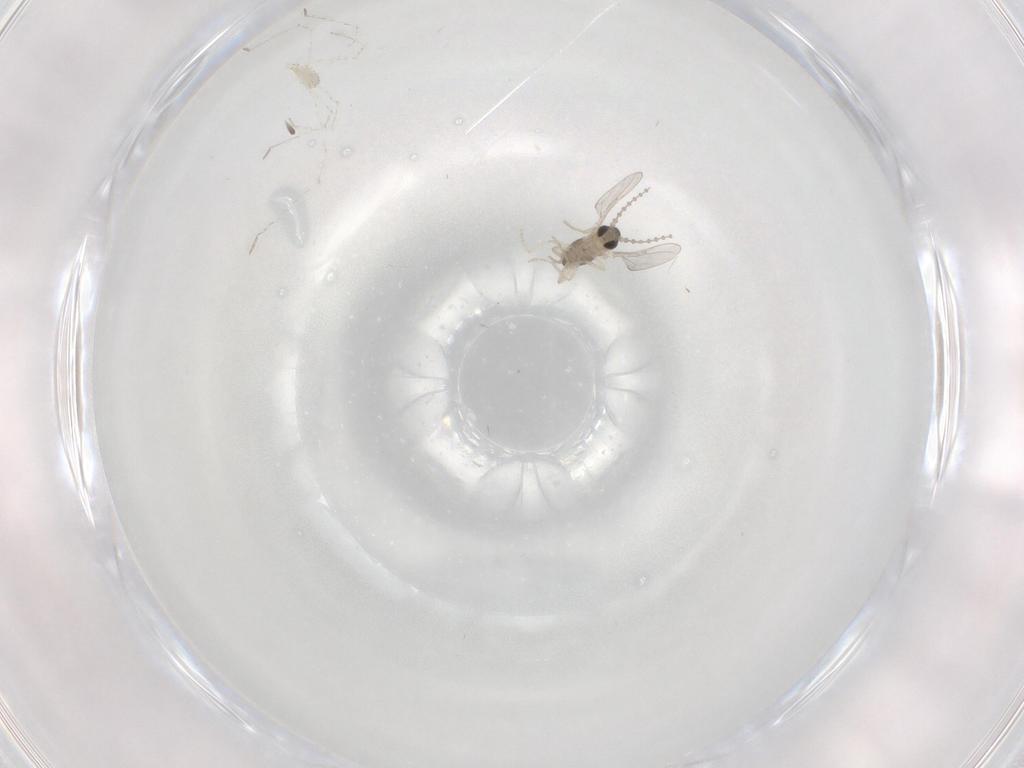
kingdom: Animalia
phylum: Arthropoda
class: Insecta
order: Diptera
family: Cecidomyiidae
